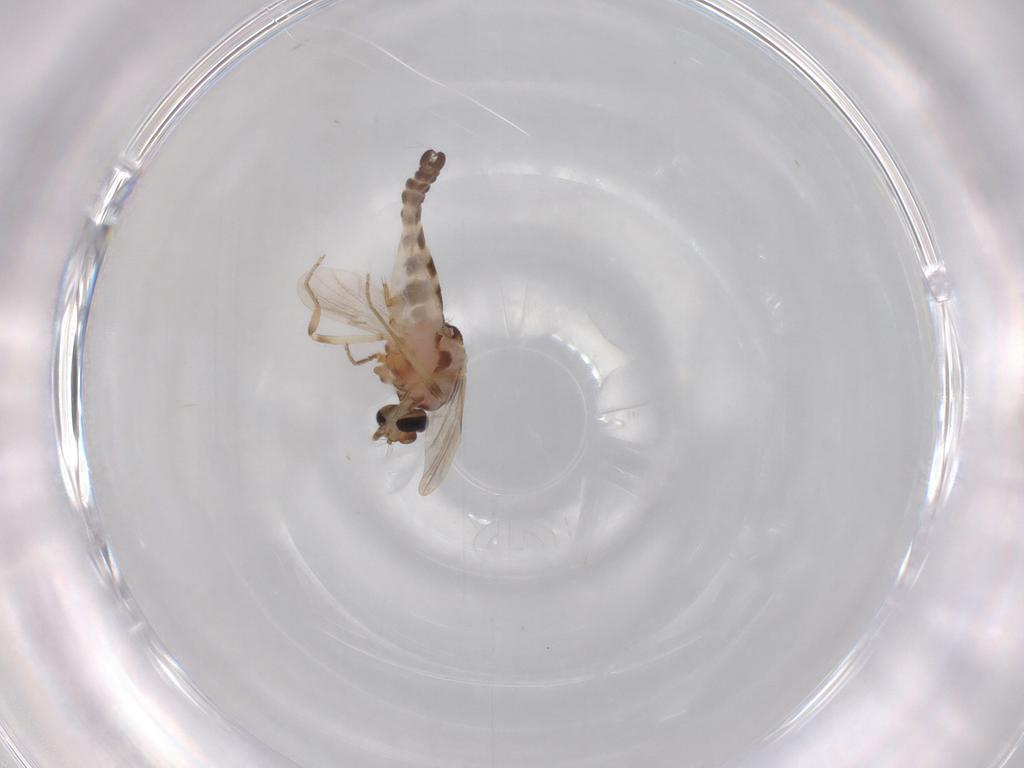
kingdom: Animalia
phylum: Arthropoda
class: Insecta
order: Diptera
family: Ceratopogonidae
